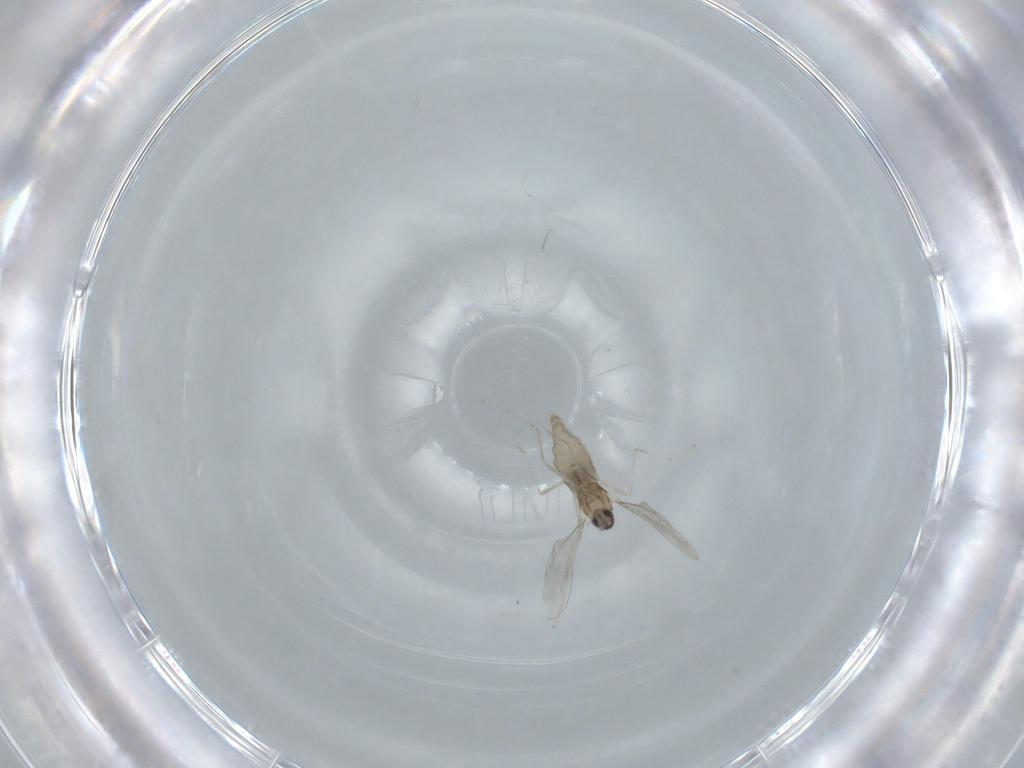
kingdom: Animalia
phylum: Arthropoda
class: Insecta
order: Diptera
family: Cecidomyiidae
